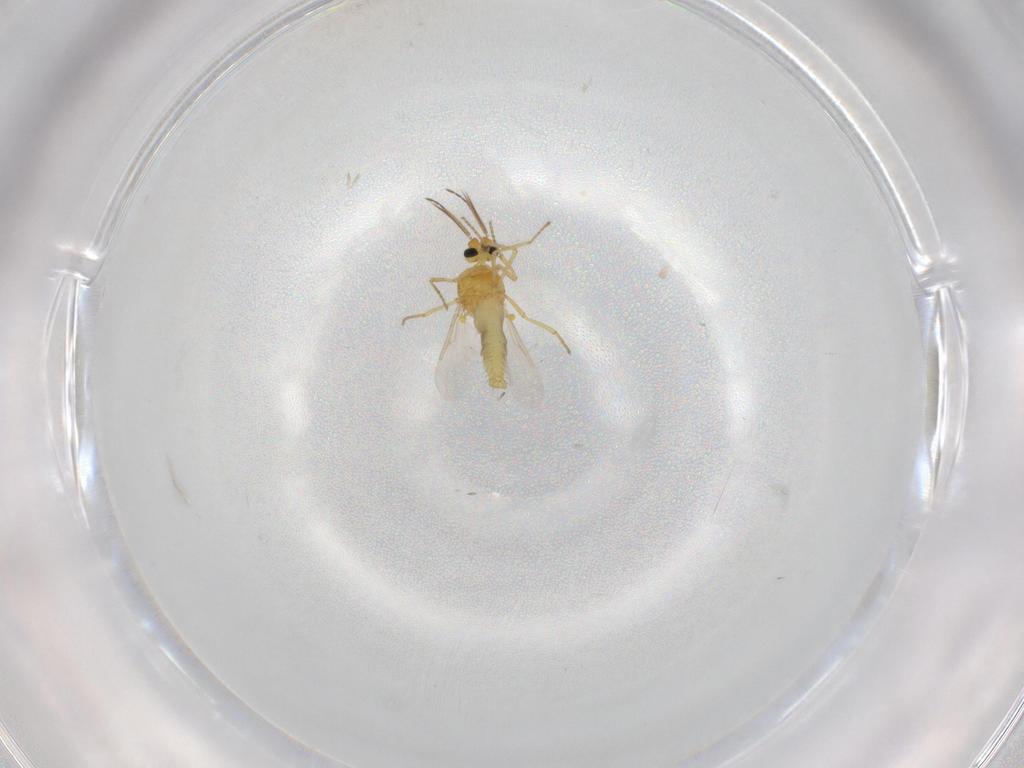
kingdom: Animalia
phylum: Arthropoda
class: Insecta
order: Diptera
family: Ceratopogonidae
